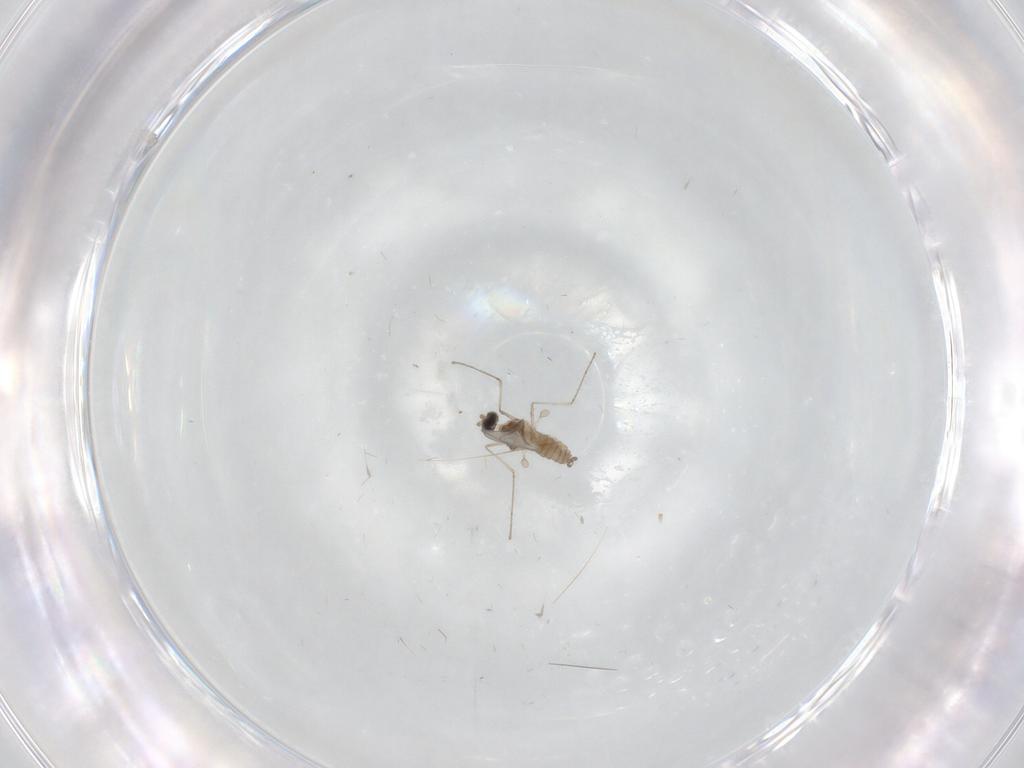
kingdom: Animalia
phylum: Arthropoda
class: Insecta
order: Diptera
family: Cecidomyiidae
